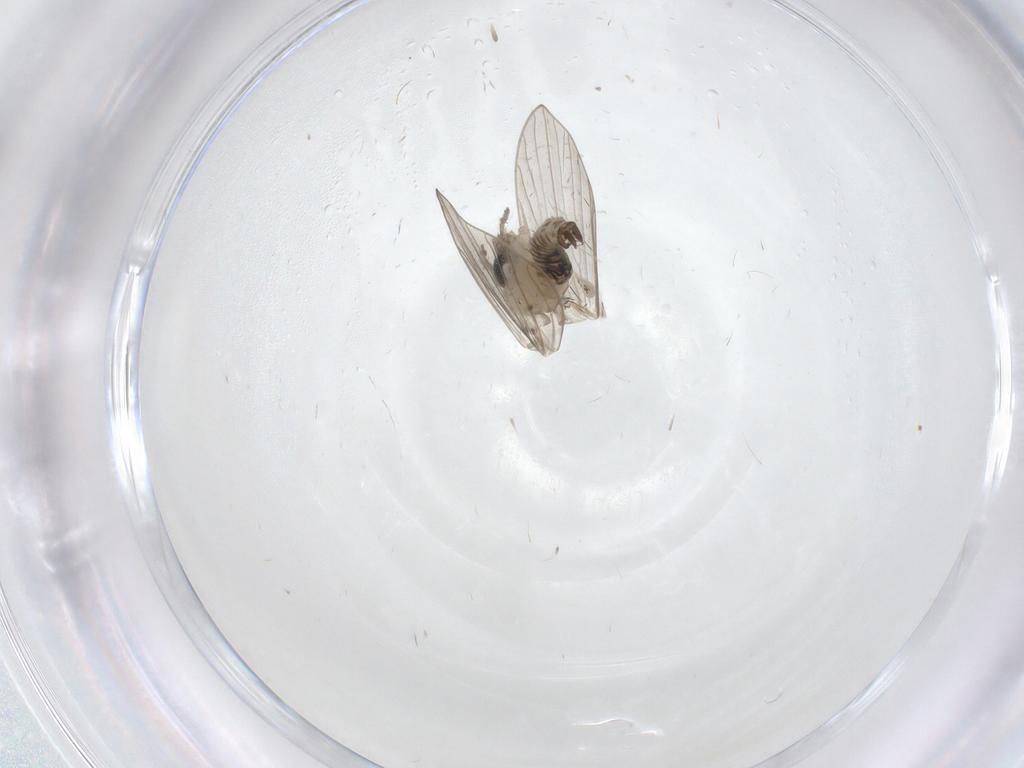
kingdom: Animalia
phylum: Arthropoda
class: Insecta
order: Diptera
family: Psychodidae
